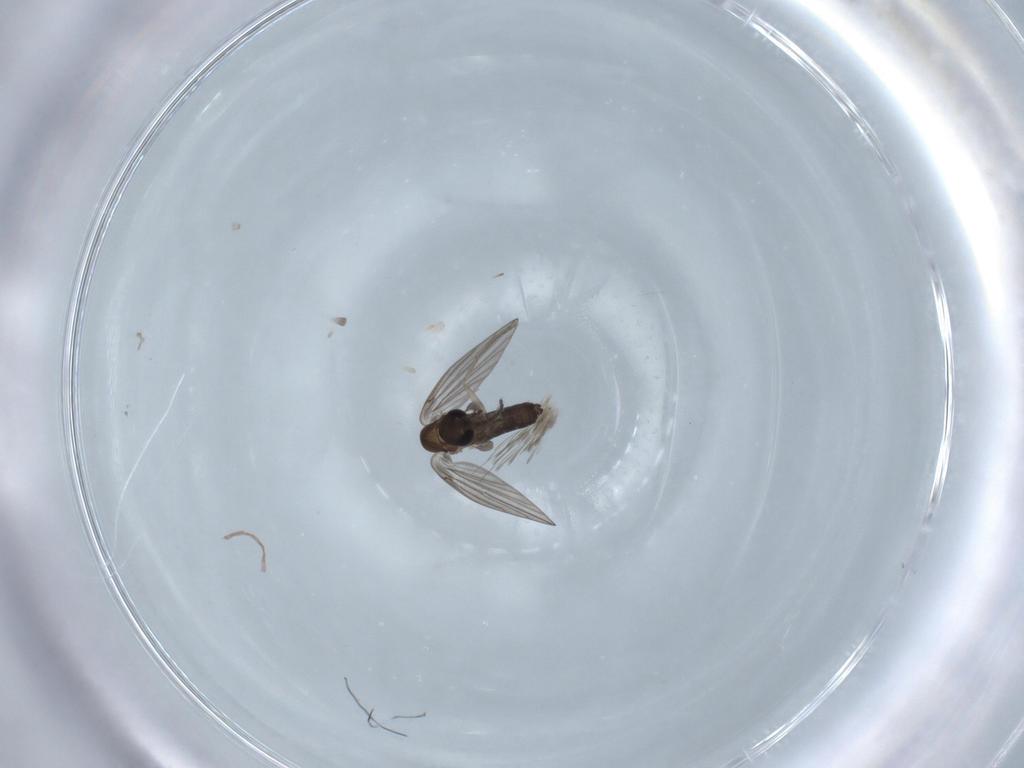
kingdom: Animalia
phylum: Arthropoda
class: Insecta
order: Diptera
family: Psychodidae
